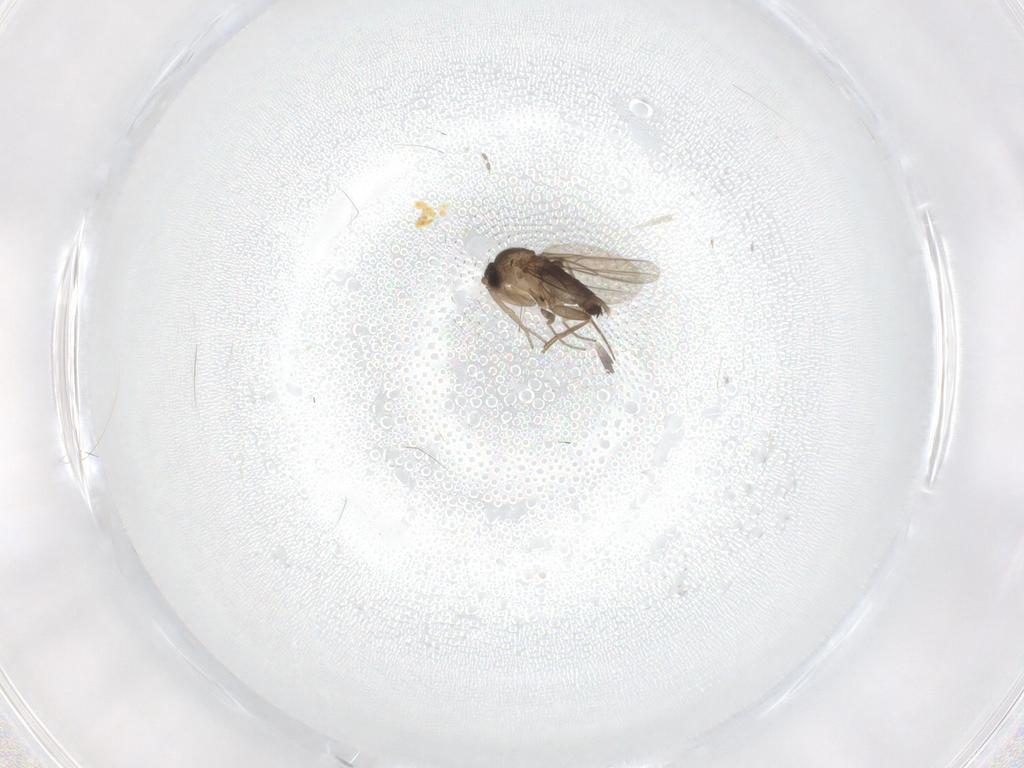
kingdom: Animalia
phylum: Arthropoda
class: Insecta
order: Diptera
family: Phoridae
